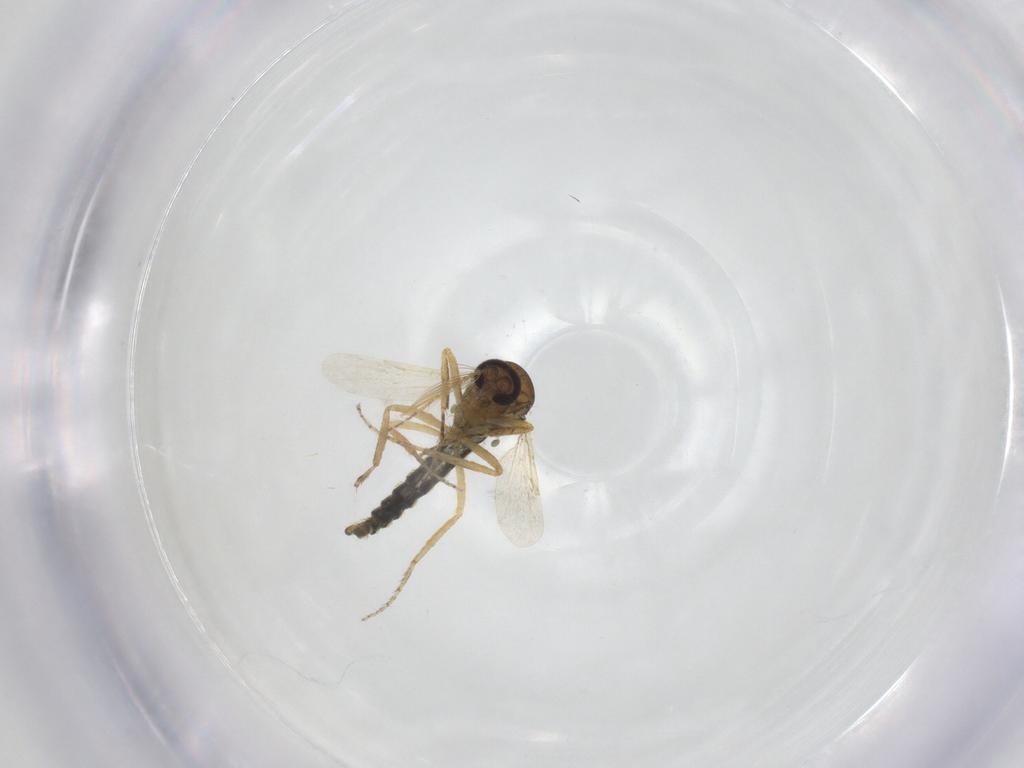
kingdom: Animalia
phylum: Arthropoda
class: Insecta
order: Diptera
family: Ceratopogonidae
